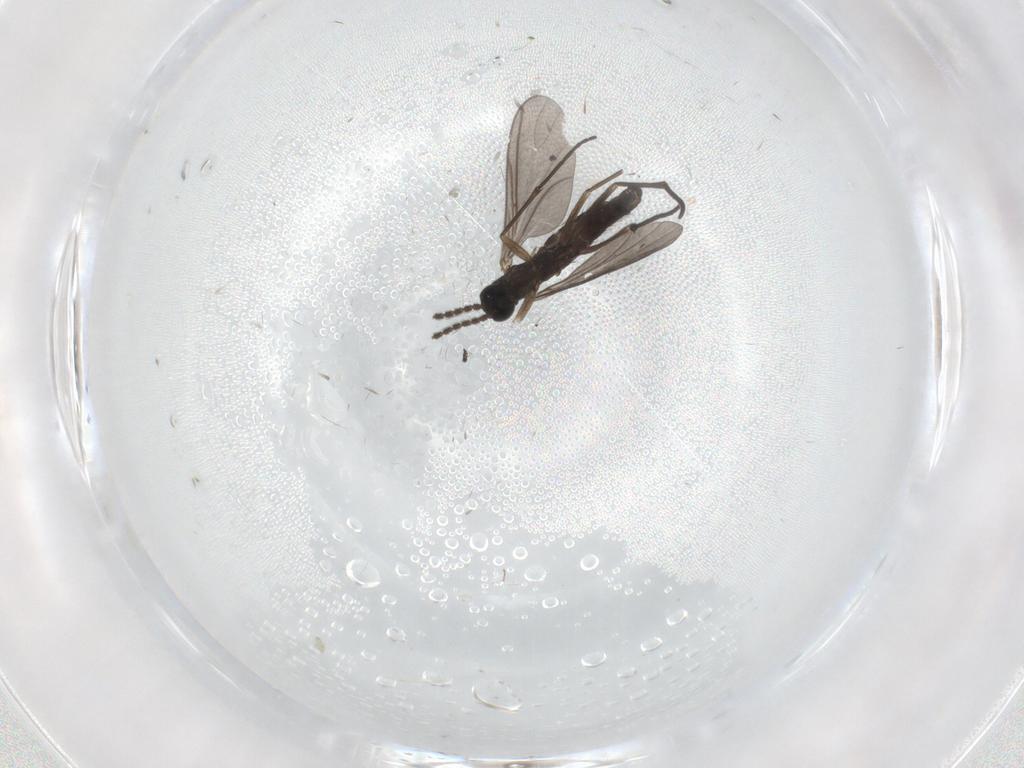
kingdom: Animalia
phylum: Arthropoda
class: Insecta
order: Diptera
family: Sciaridae
